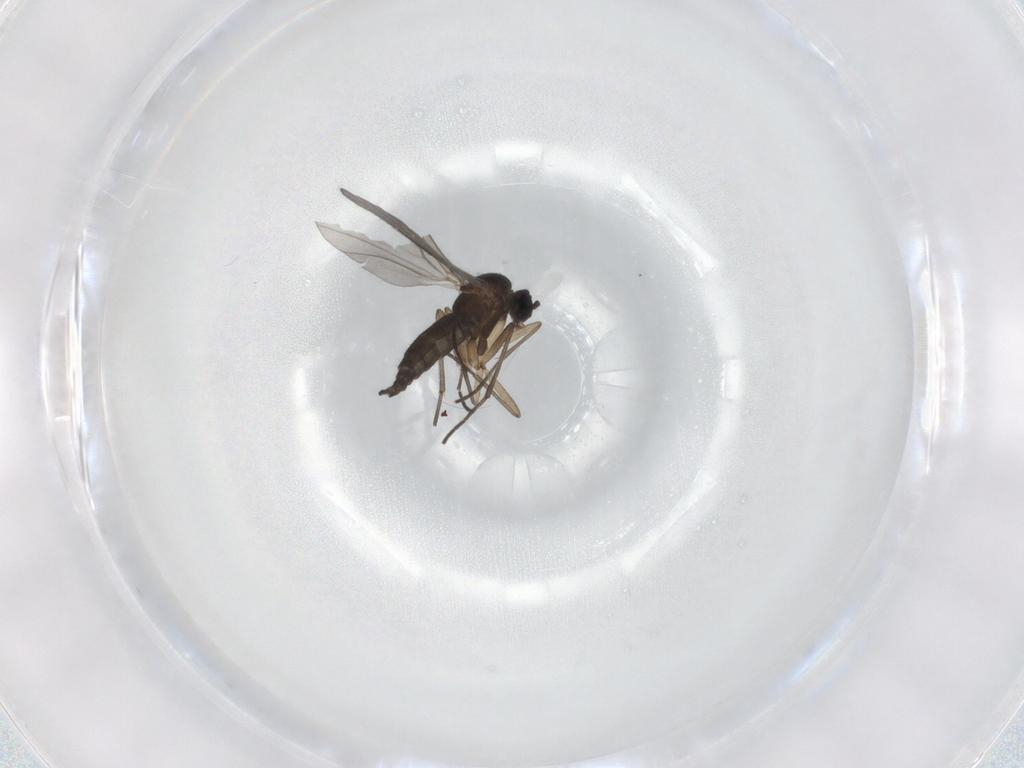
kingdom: Animalia
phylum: Arthropoda
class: Insecta
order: Diptera
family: Sciaridae
